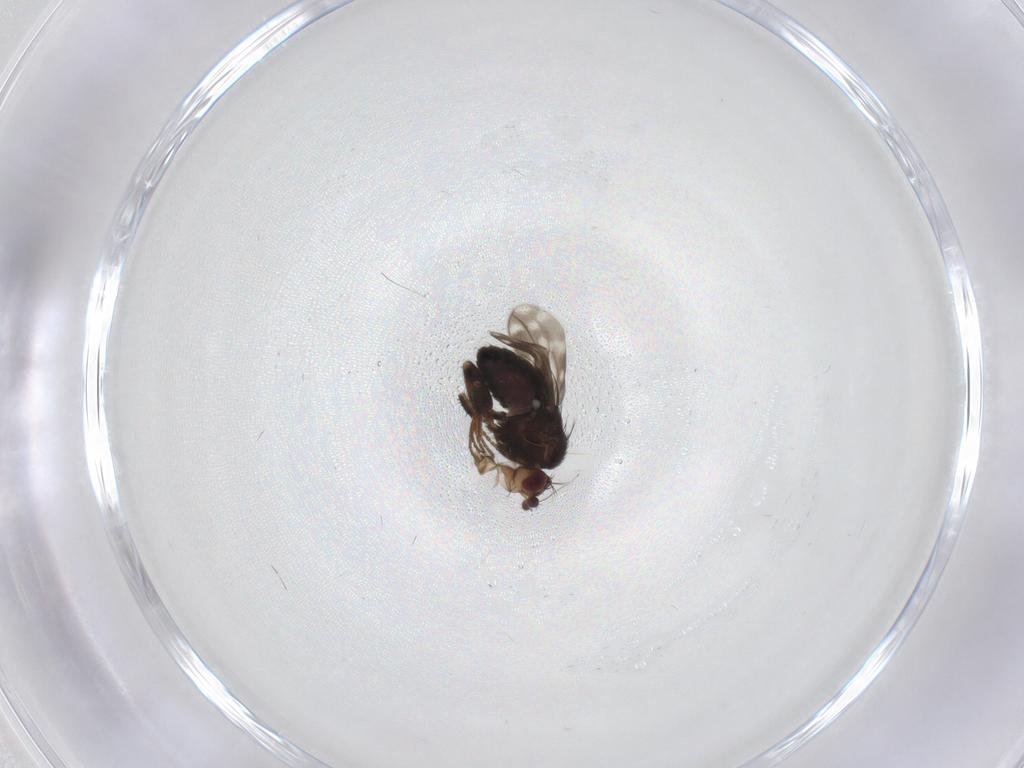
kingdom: Animalia
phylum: Arthropoda
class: Insecta
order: Diptera
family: Sphaeroceridae
